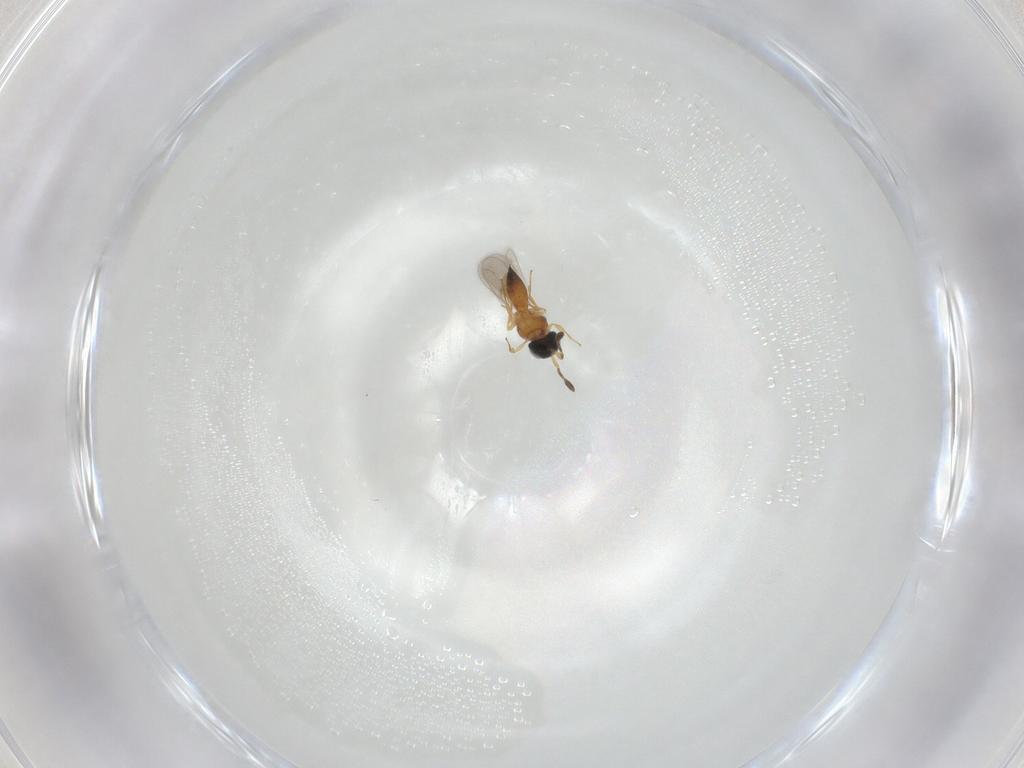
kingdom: Animalia
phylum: Arthropoda
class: Insecta
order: Hymenoptera
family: Scelionidae
